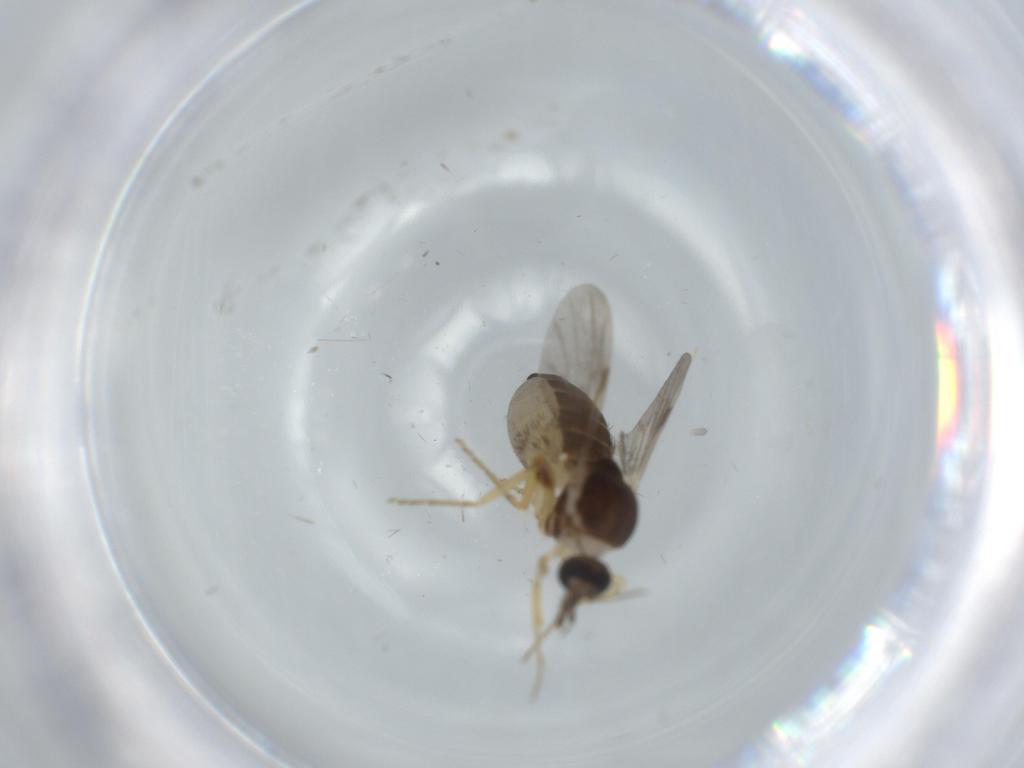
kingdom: Animalia
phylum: Arthropoda
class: Insecta
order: Diptera
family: Ceratopogonidae
